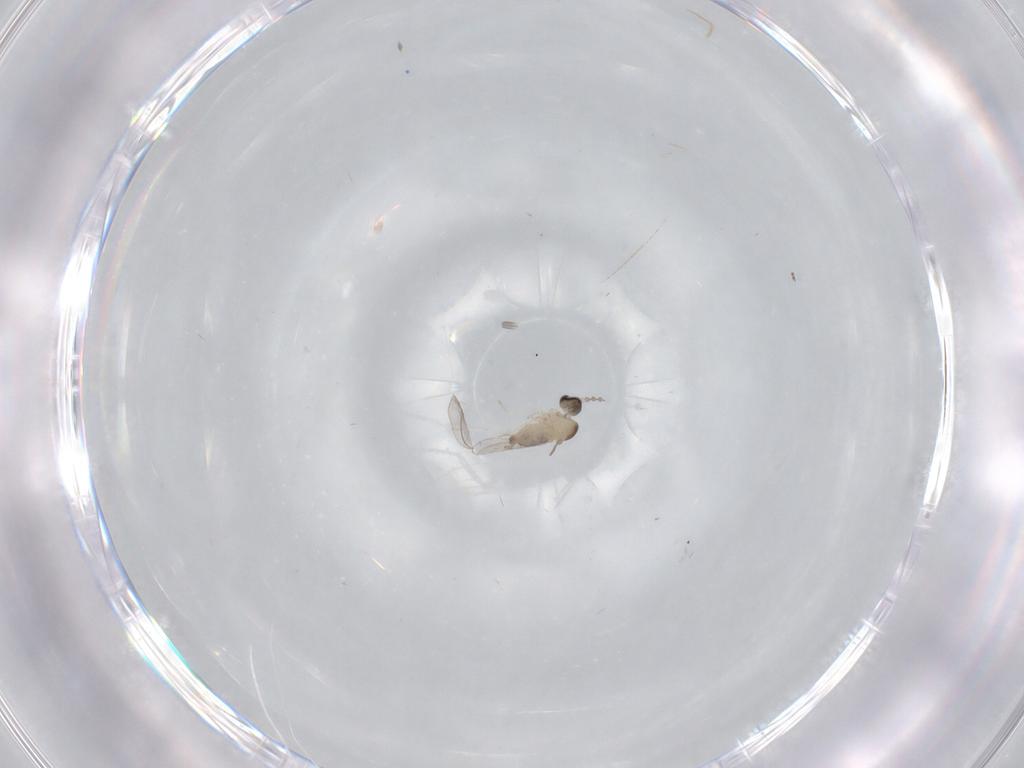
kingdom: Animalia
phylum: Arthropoda
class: Insecta
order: Diptera
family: Cecidomyiidae
